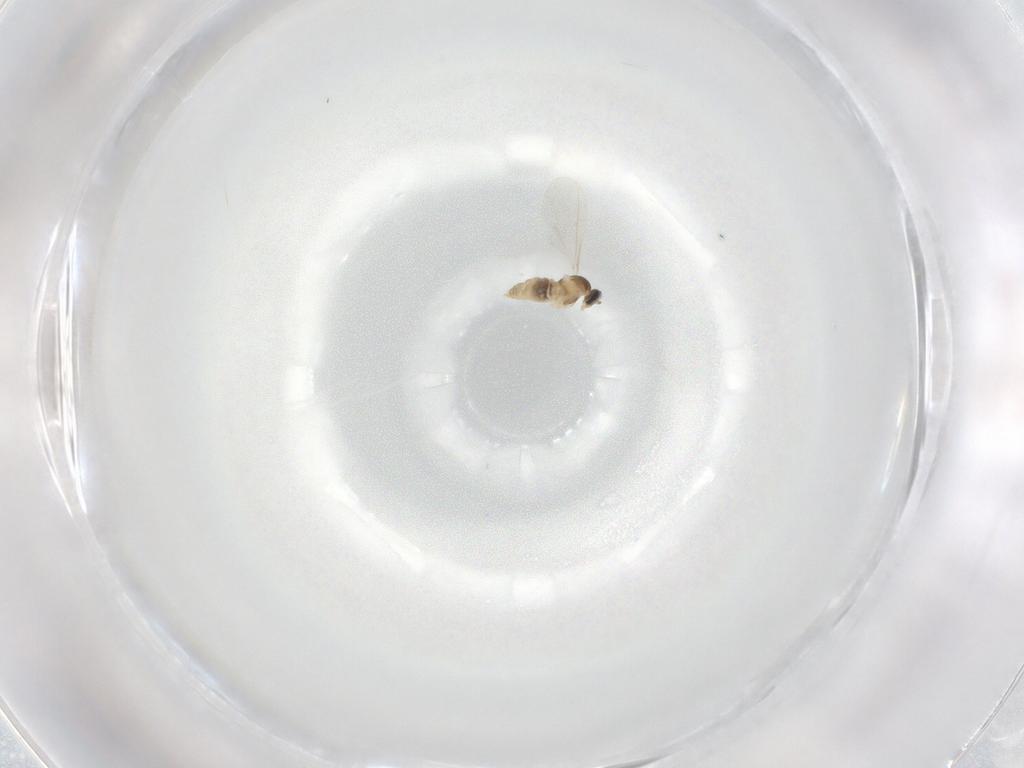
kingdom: Animalia
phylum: Arthropoda
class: Insecta
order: Diptera
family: Cecidomyiidae
